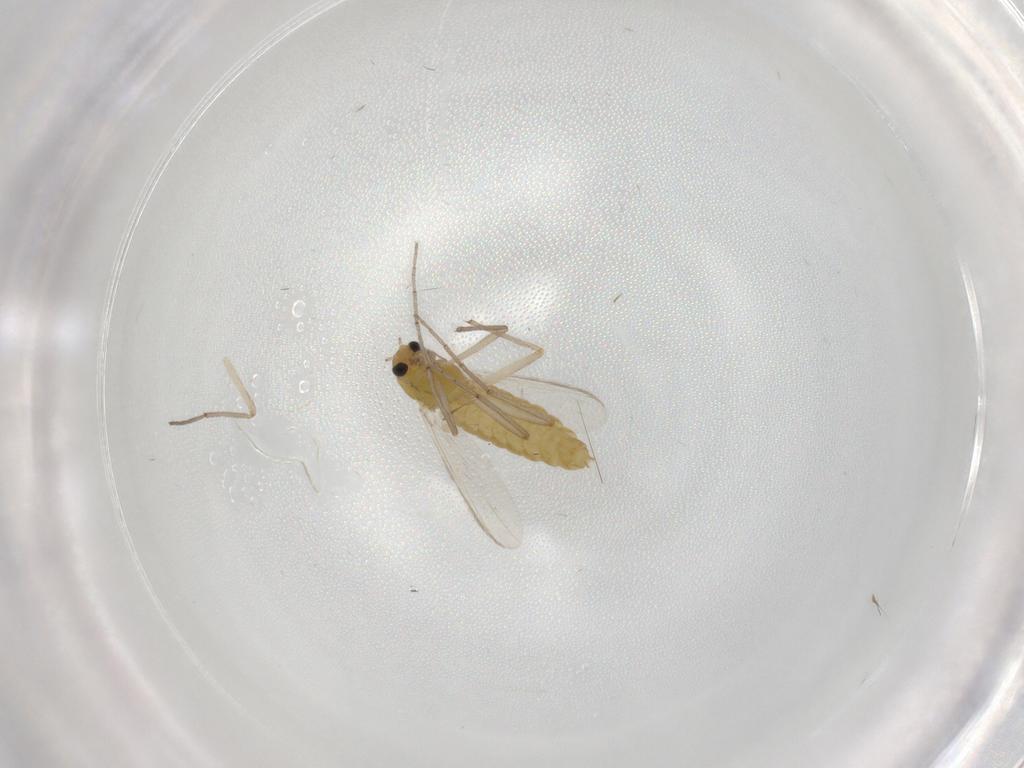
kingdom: Animalia
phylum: Arthropoda
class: Insecta
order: Diptera
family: Chironomidae
